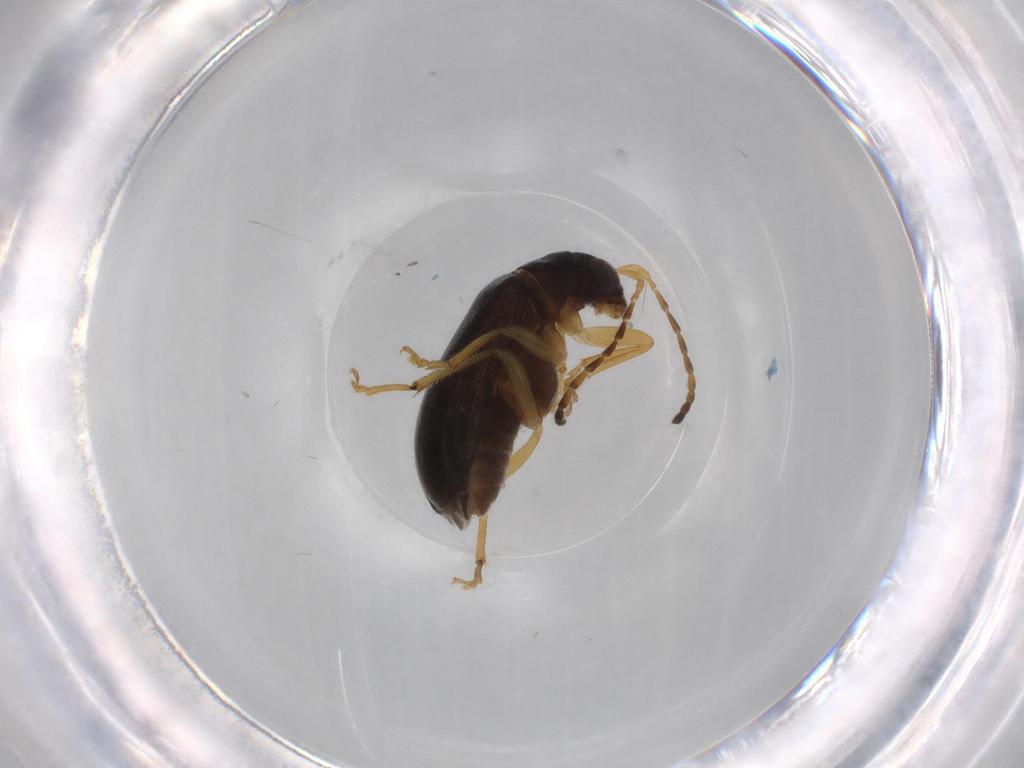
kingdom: Animalia
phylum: Arthropoda
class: Insecta
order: Coleoptera
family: Chrysomelidae
